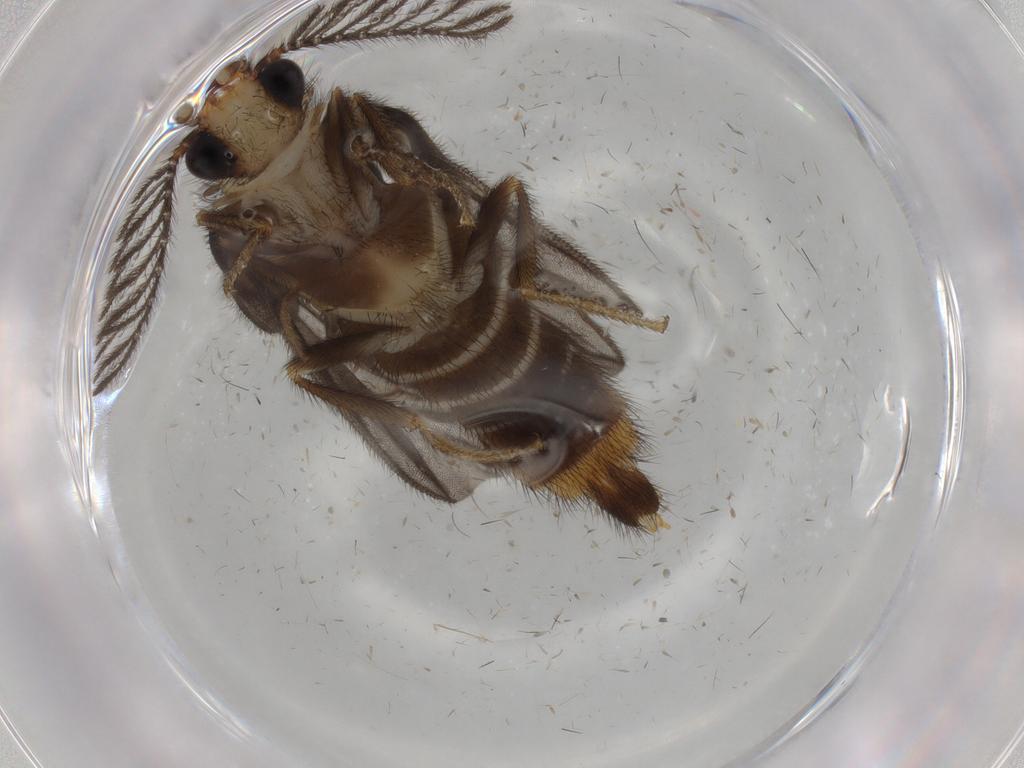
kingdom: Animalia
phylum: Arthropoda
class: Insecta
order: Coleoptera
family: Phengodidae
